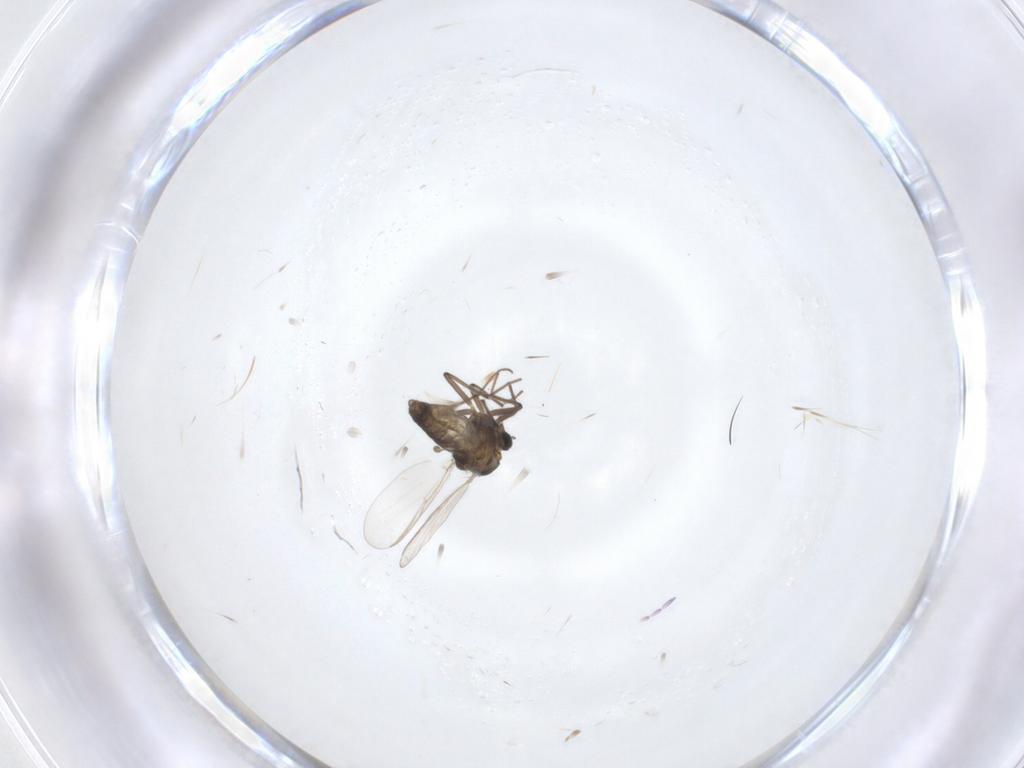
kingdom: Animalia
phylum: Arthropoda
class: Insecta
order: Diptera
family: Chironomidae
